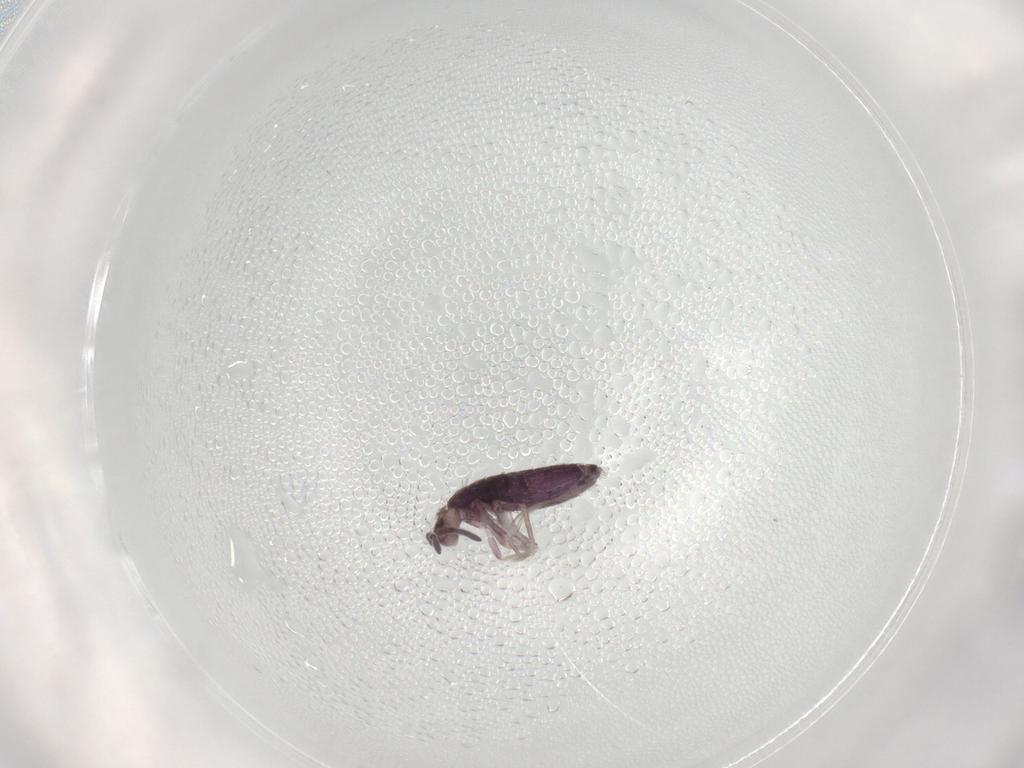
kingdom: Animalia
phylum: Arthropoda
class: Collembola
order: Entomobryomorpha
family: Entomobryidae
